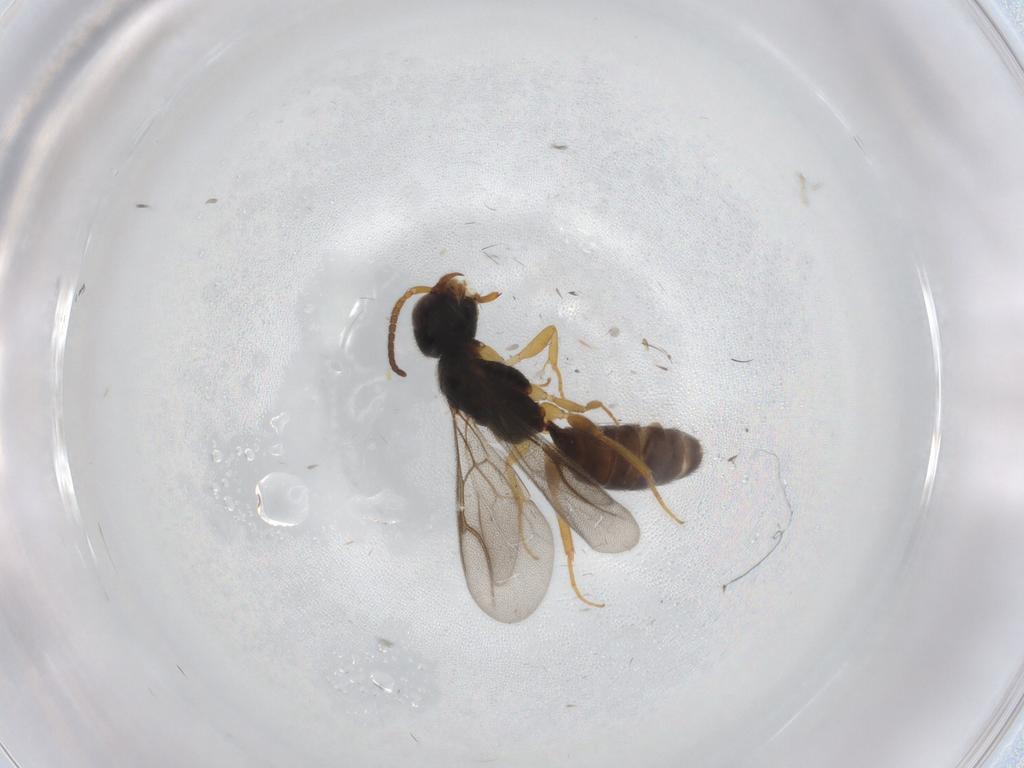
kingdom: Animalia
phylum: Arthropoda
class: Insecta
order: Hymenoptera
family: Bethylidae
